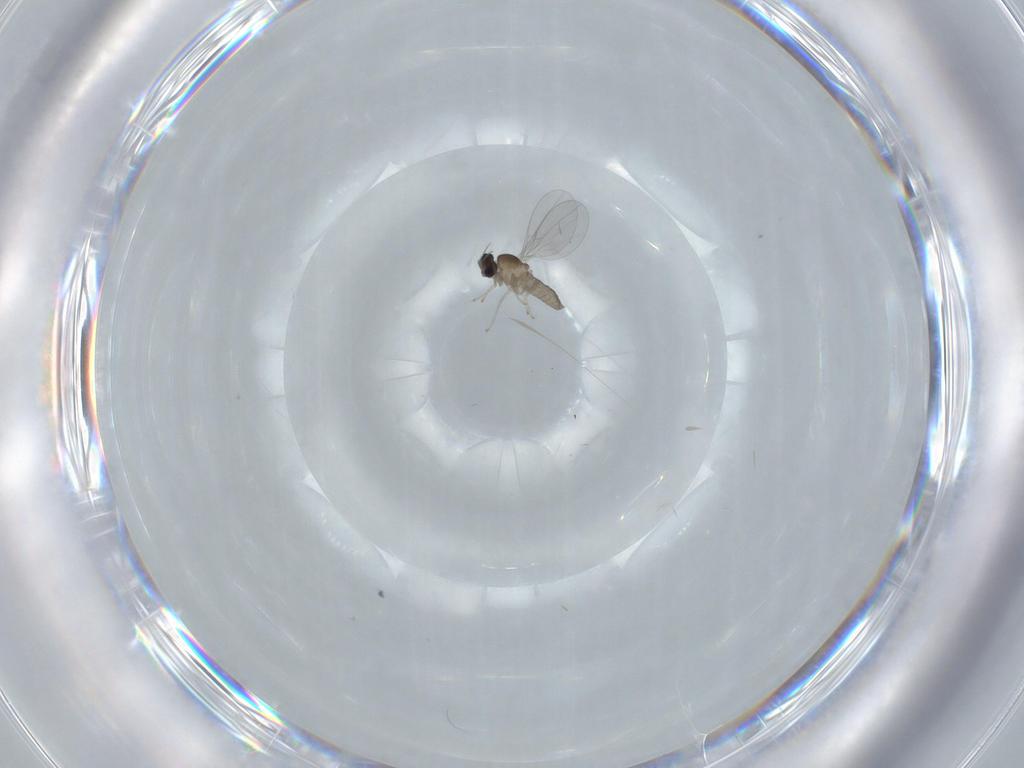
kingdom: Animalia
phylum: Arthropoda
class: Insecta
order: Diptera
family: Cecidomyiidae
